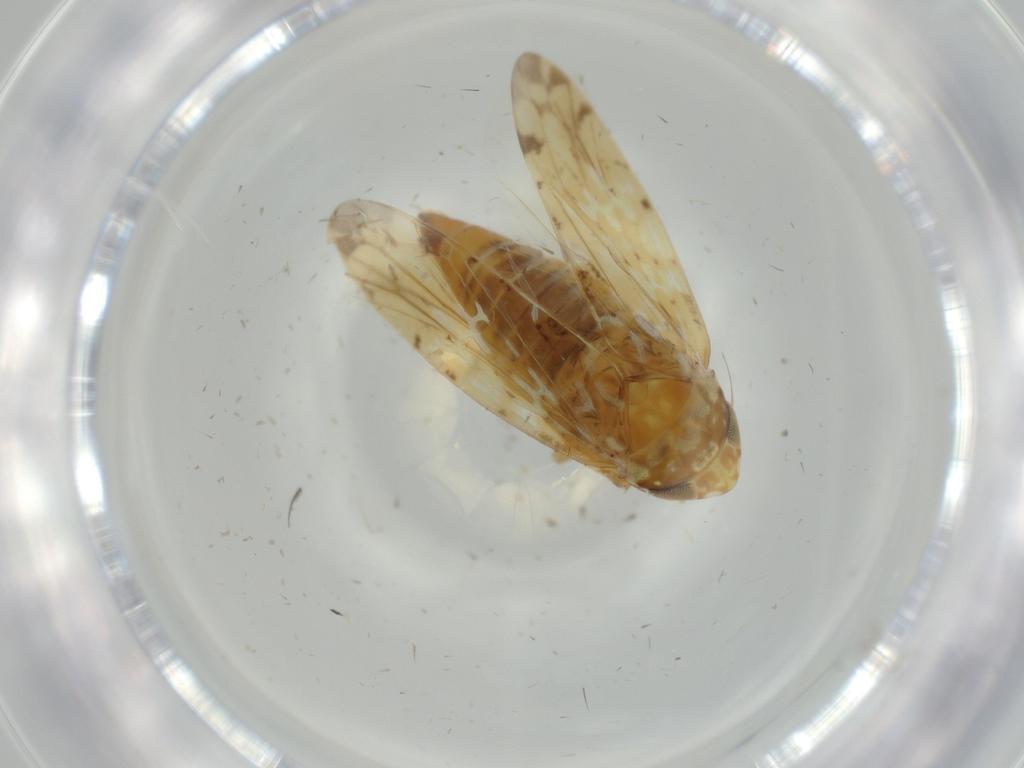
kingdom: Animalia
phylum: Arthropoda
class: Insecta
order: Hemiptera
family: Cicadellidae
